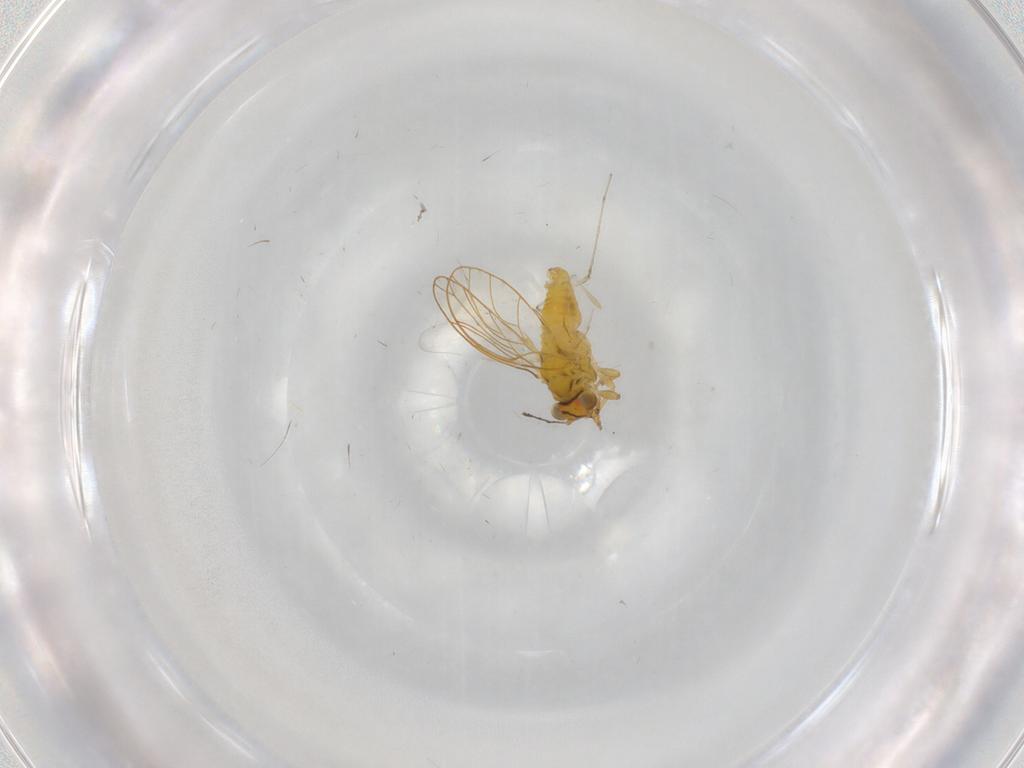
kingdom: Animalia
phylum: Arthropoda
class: Insecta
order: Hemiptera
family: Psylloidea_incertae_sedis
